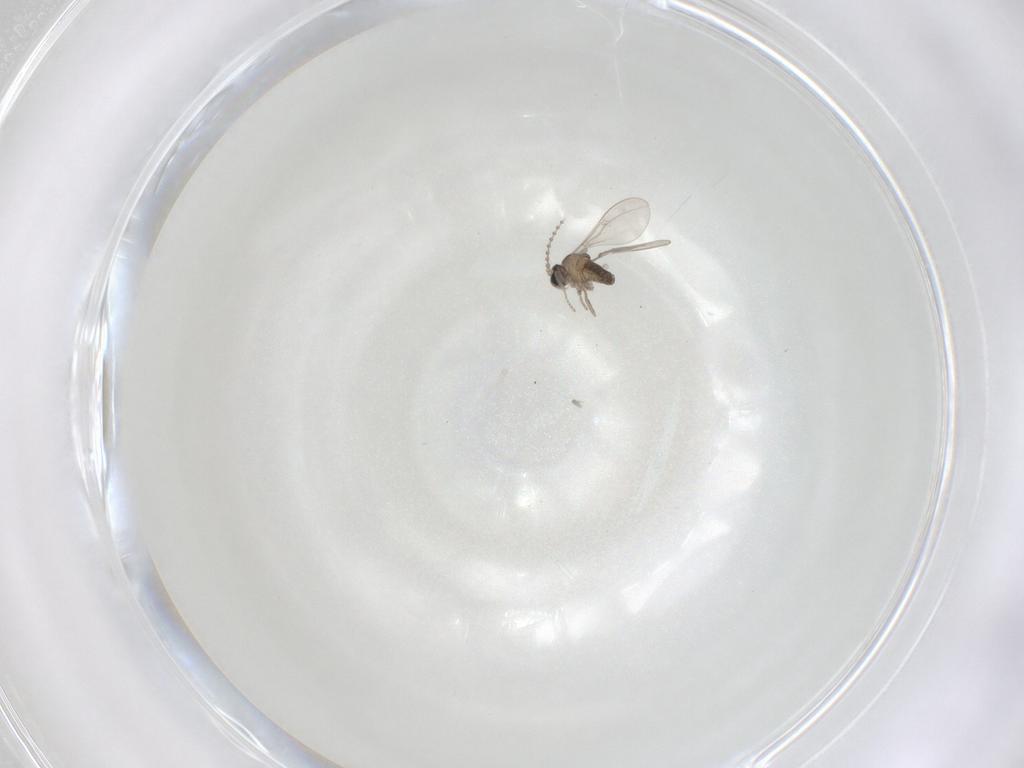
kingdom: Animalia
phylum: Arthropoda
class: Insecta
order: Diptera
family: Cecidomyiidae
